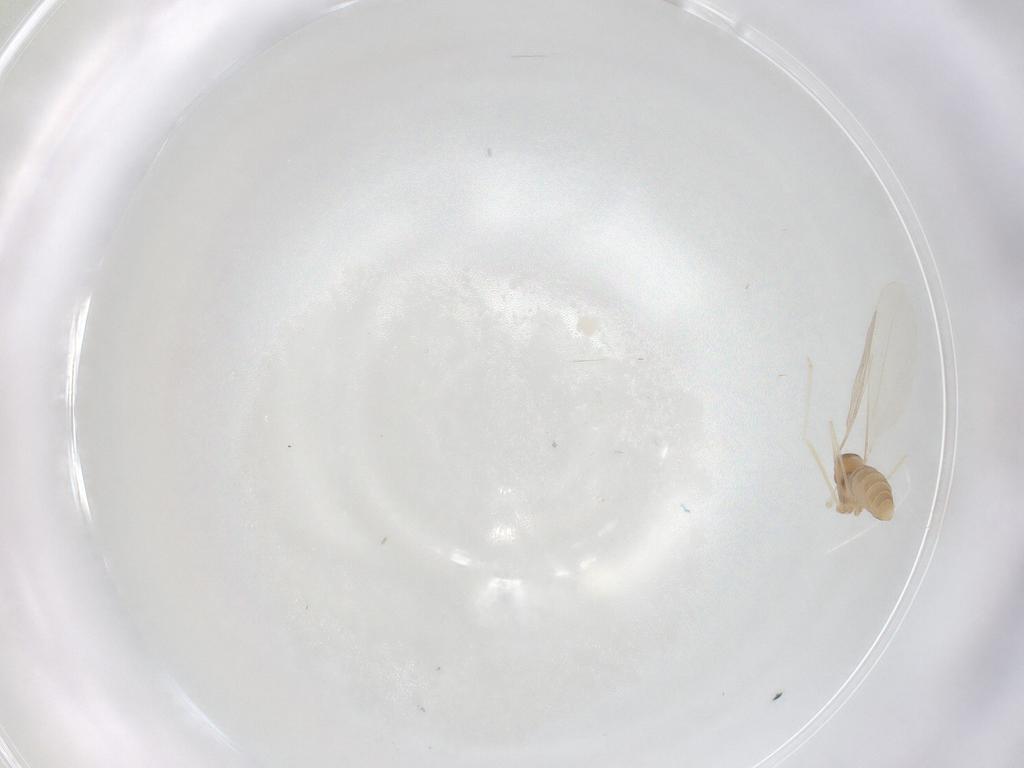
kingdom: Animalia
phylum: Arthropoda
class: Insecta
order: Diptera
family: Cecidomyiidae
